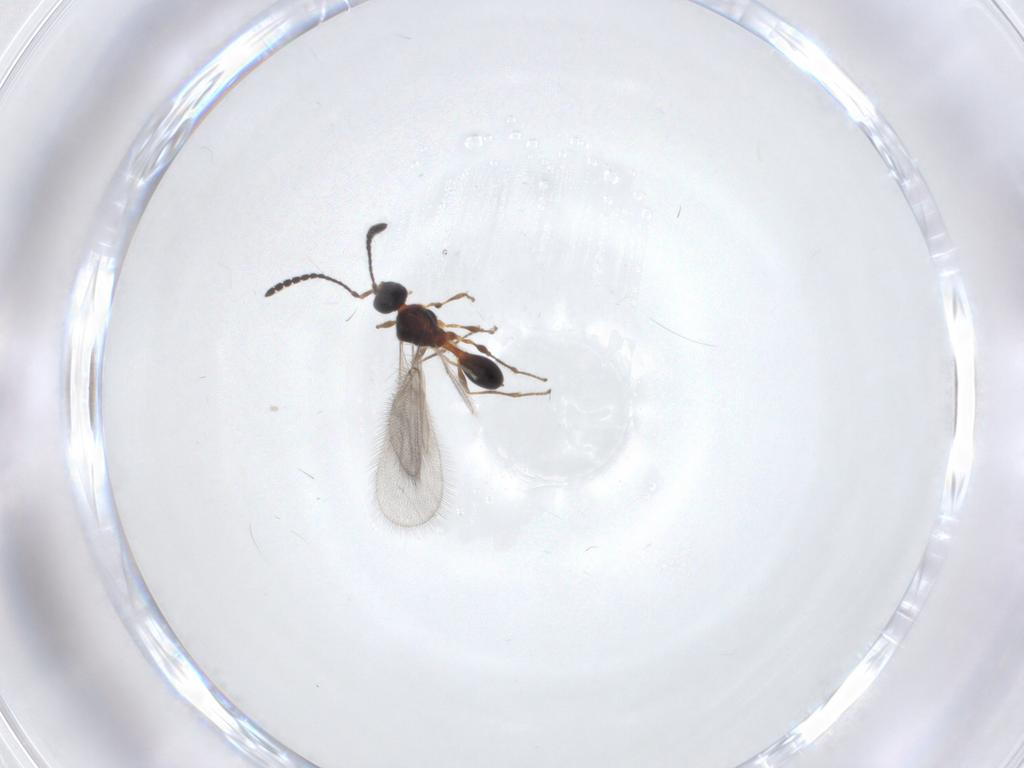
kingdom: Animalia
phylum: Arthropoda
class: Insecta
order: Hymenoptera
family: Diapriidae
